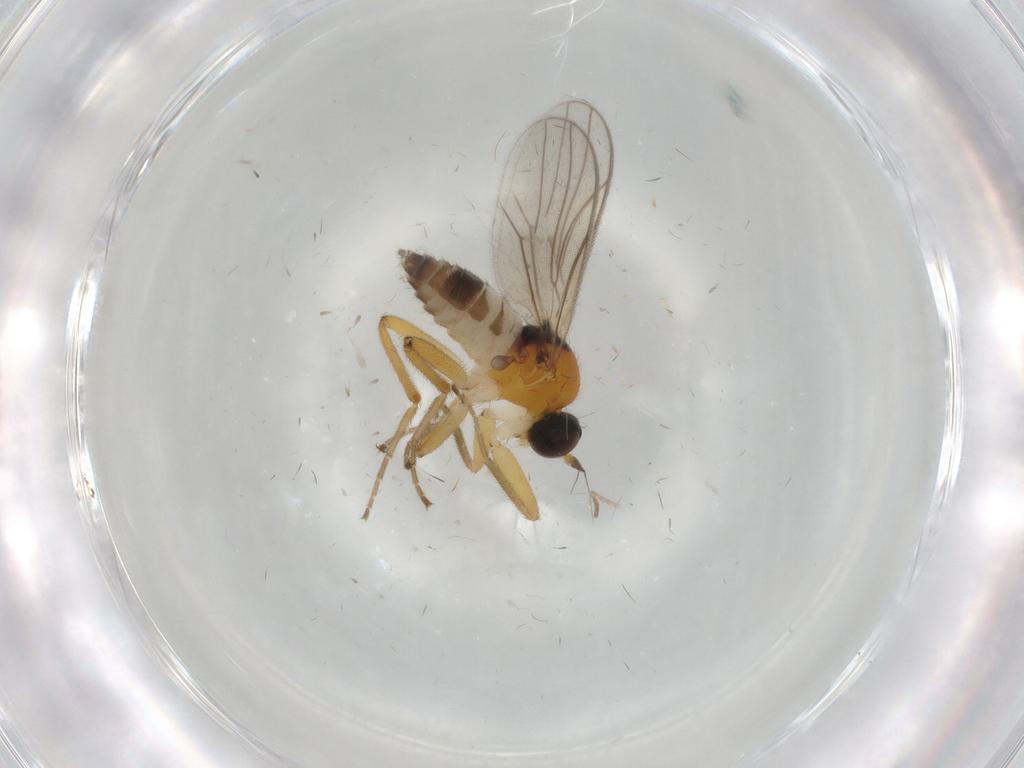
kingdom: Animalia
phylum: Arthropoda
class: Insecta
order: Diptera
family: Hybotidae
